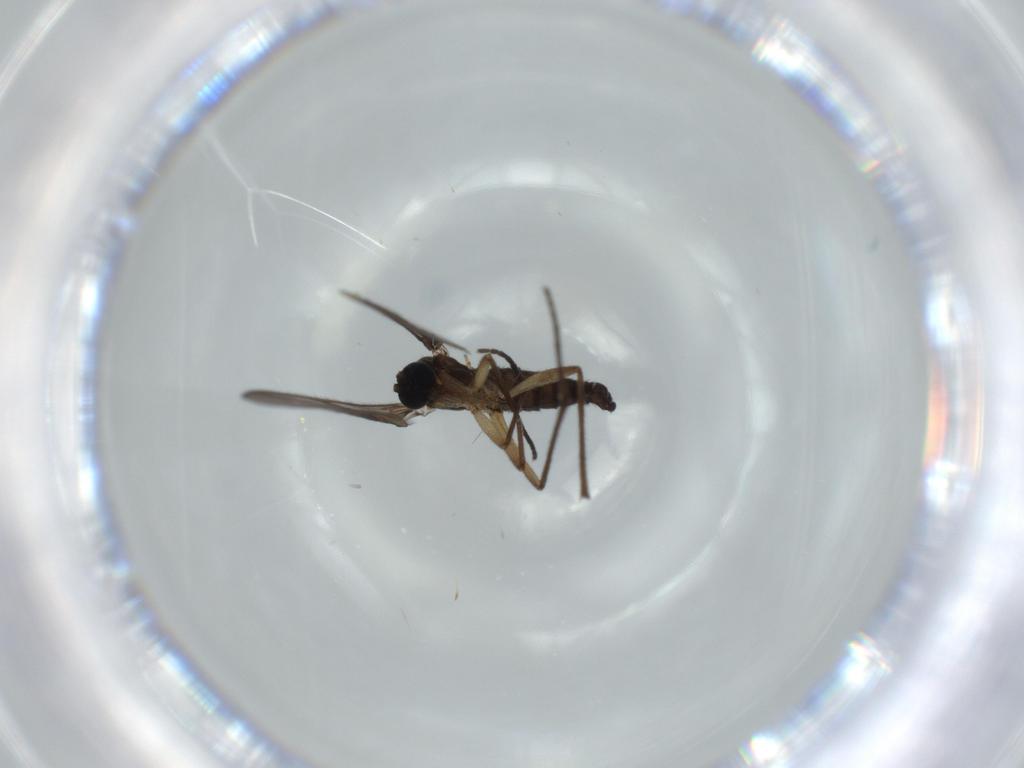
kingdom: Animalia
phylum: Arthropoda
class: Insecta
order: Diptera
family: Sciaridae
